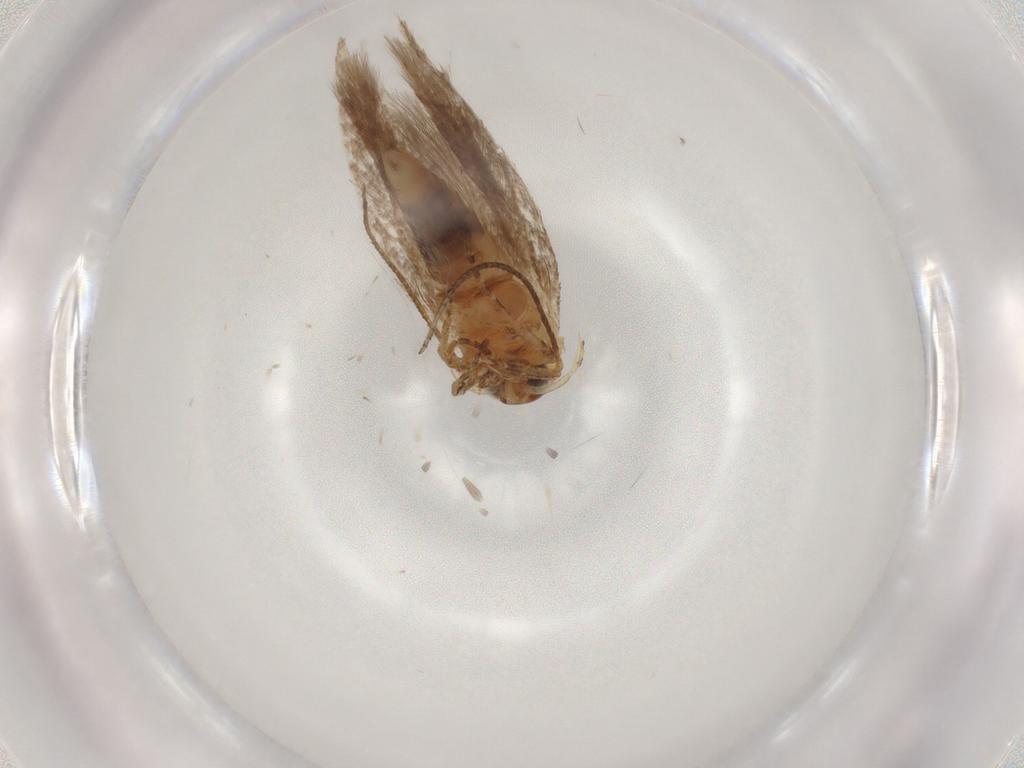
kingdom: Animalia
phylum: Arthropoda
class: Insecta
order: Lepidoptera
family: Gelechiidae
